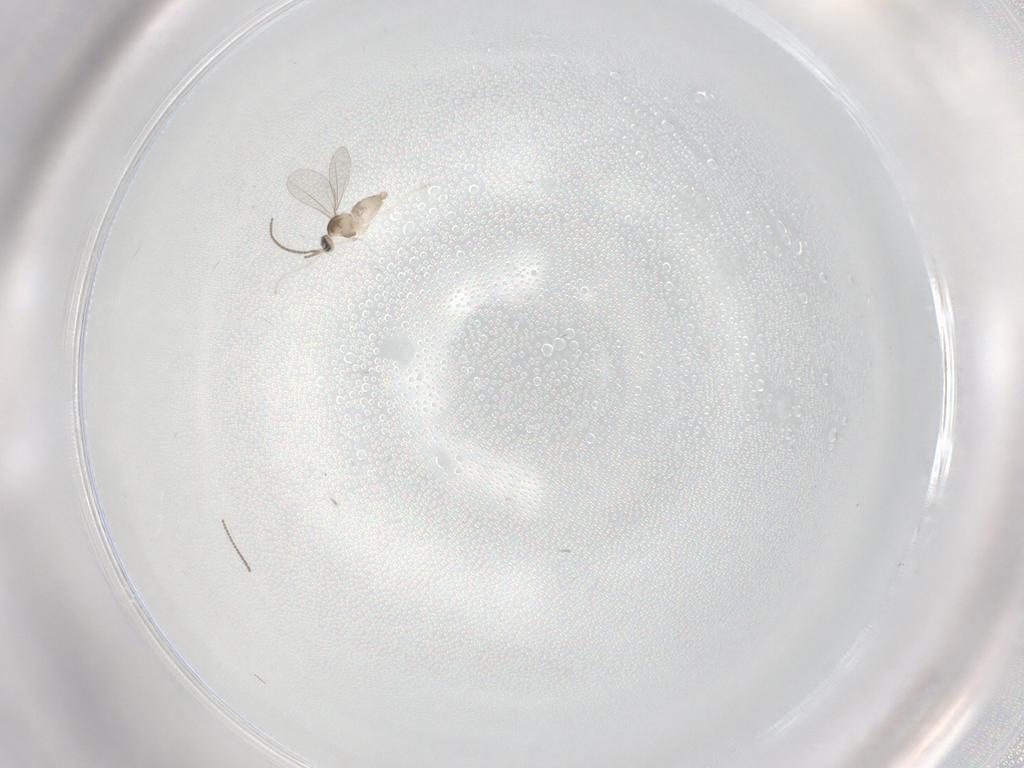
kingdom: Animalia
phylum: Arthropoda
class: Insecta
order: Diptera
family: Cecidomyiidae
